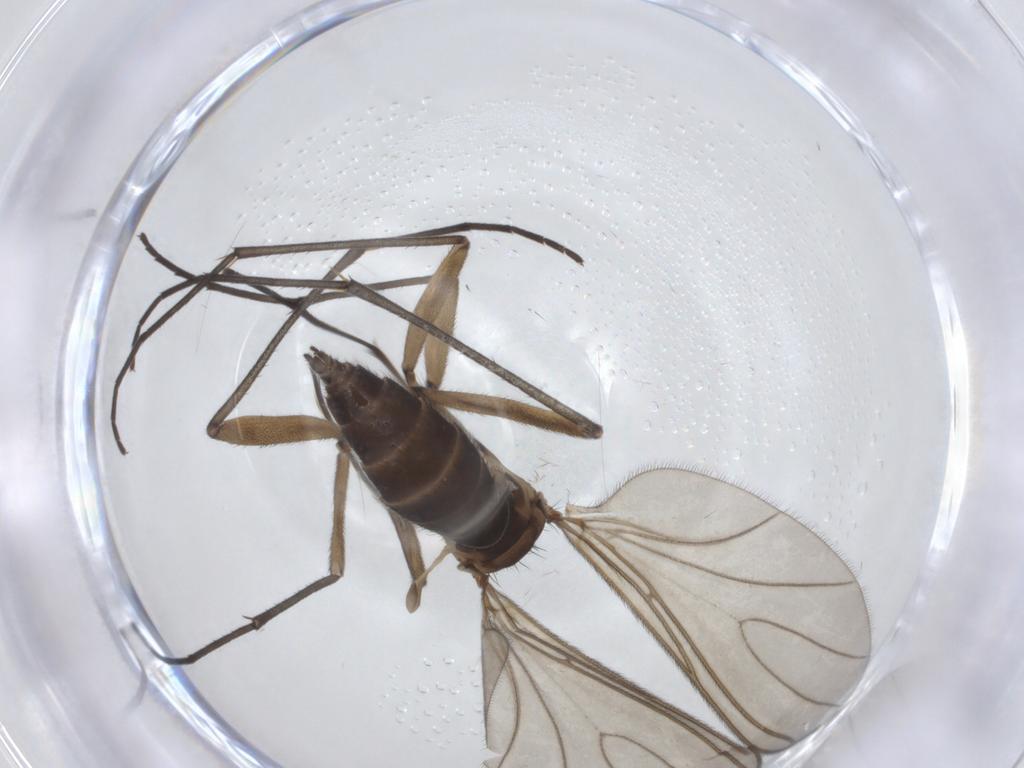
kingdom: Animalia
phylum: Arthropoda
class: Insecta
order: Diptera
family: Sciaridae
